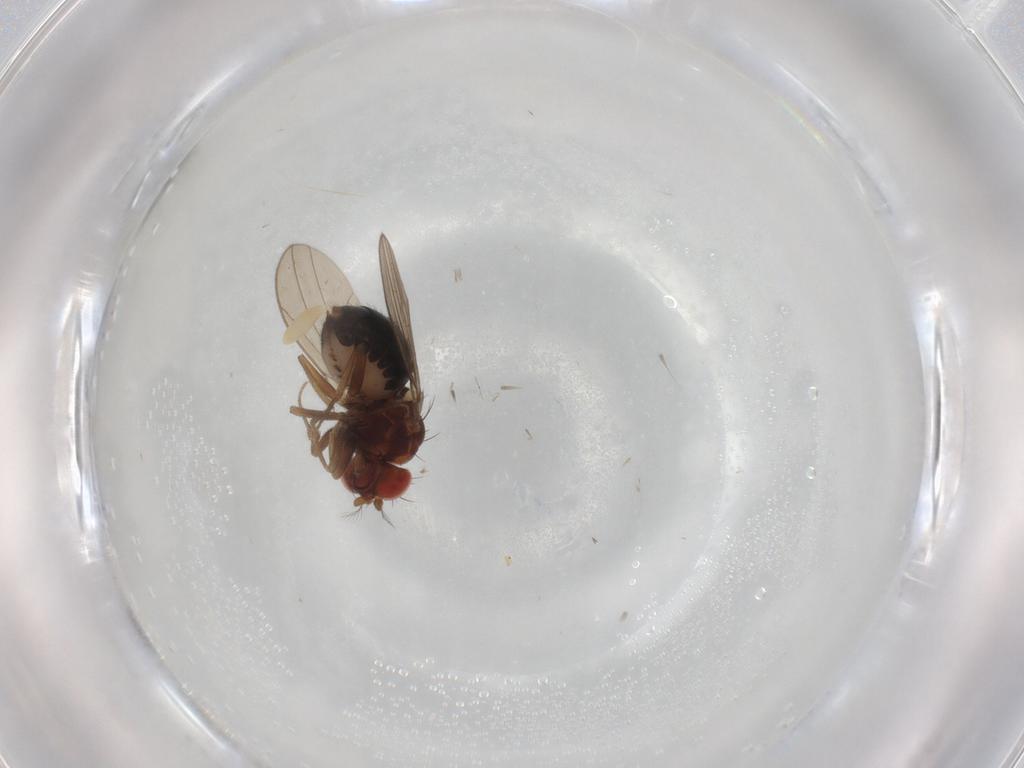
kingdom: Animalia
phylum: Arthropoda
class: Insecta
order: Diptera
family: Drosophilidae
